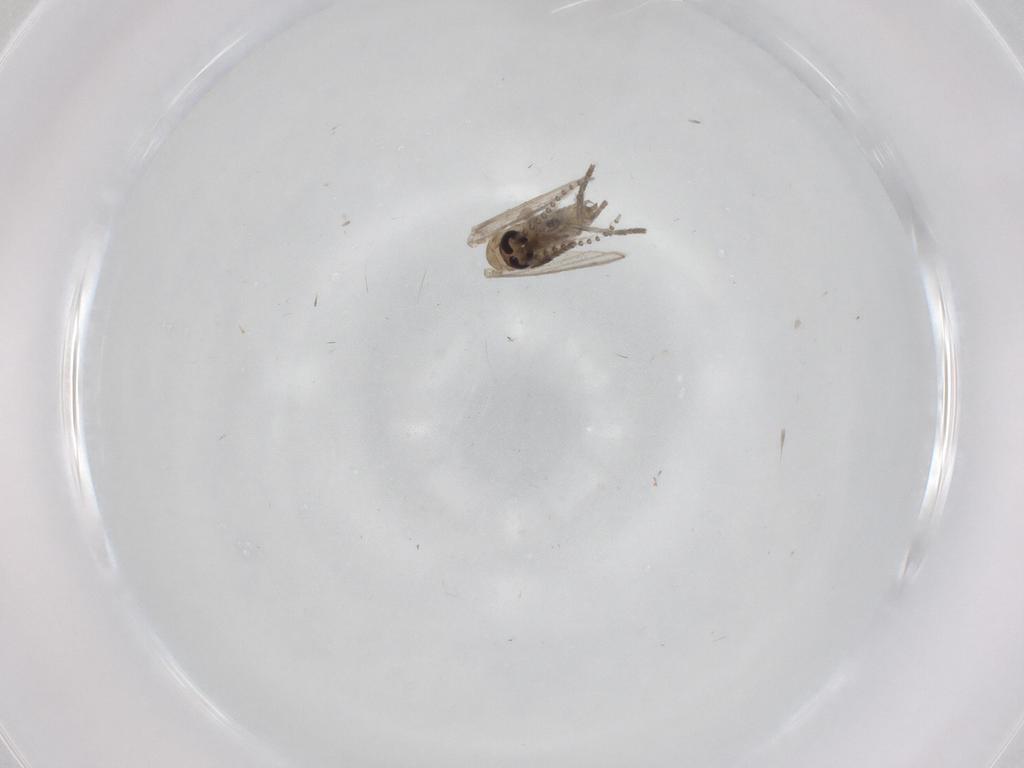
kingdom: Animalia
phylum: Arthropoda
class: Insecta
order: Diptera
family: Psychodidae
